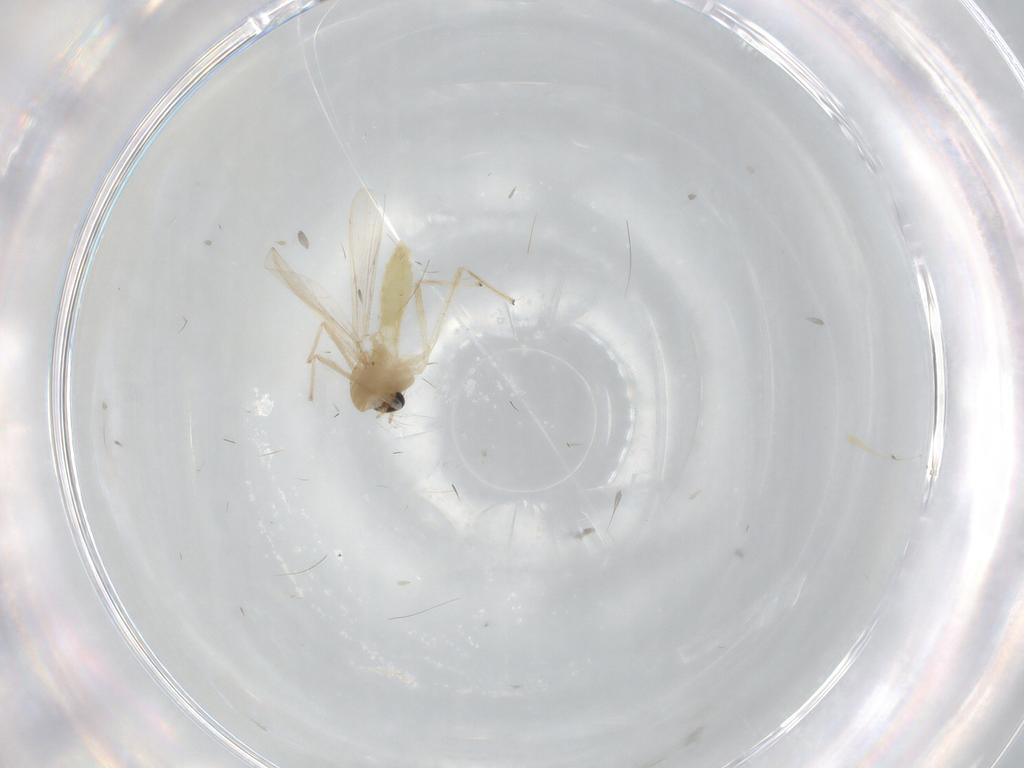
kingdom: Animalia
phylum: Arthropoda
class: Insecta
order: Diptera
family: Chironomidae
